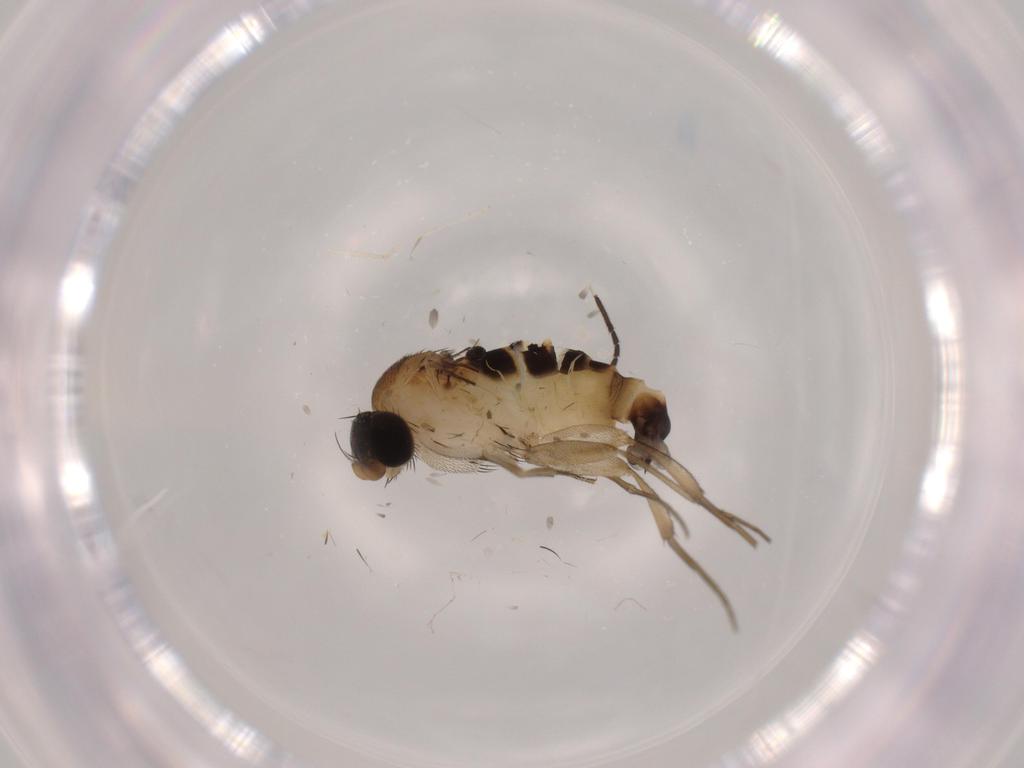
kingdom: Animalia
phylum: Arthropoda
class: Insecta
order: Diptera
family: Phoridae
